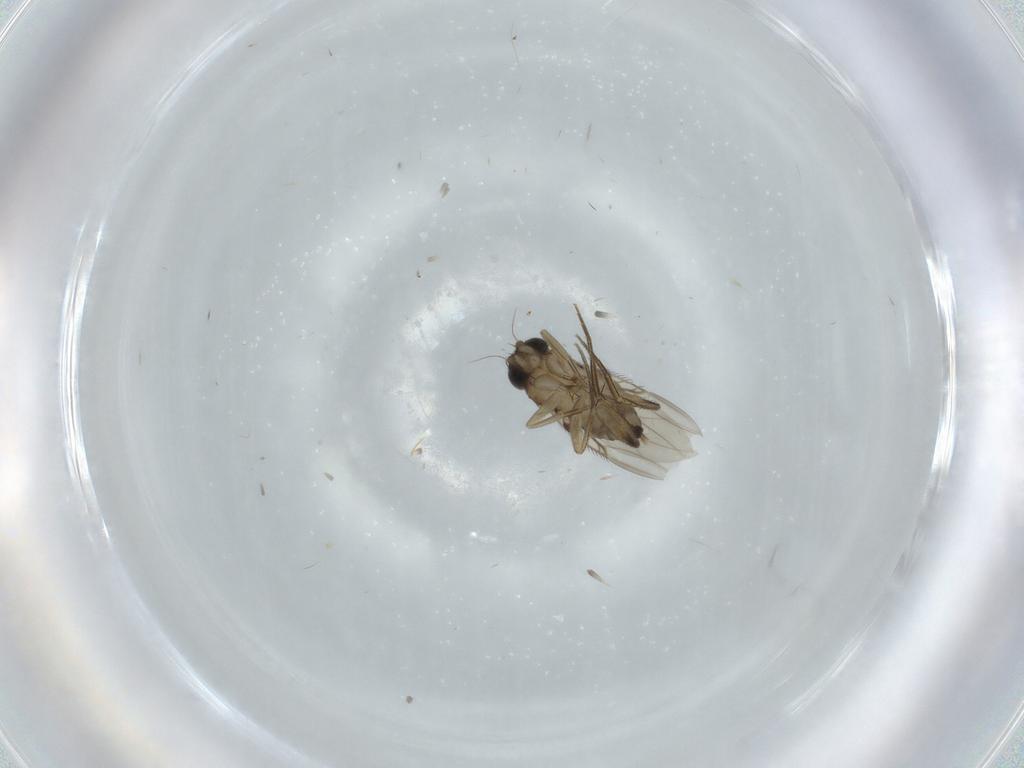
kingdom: Animalia
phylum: Arthropoda
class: Insecta
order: Diptera
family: Phoridae
